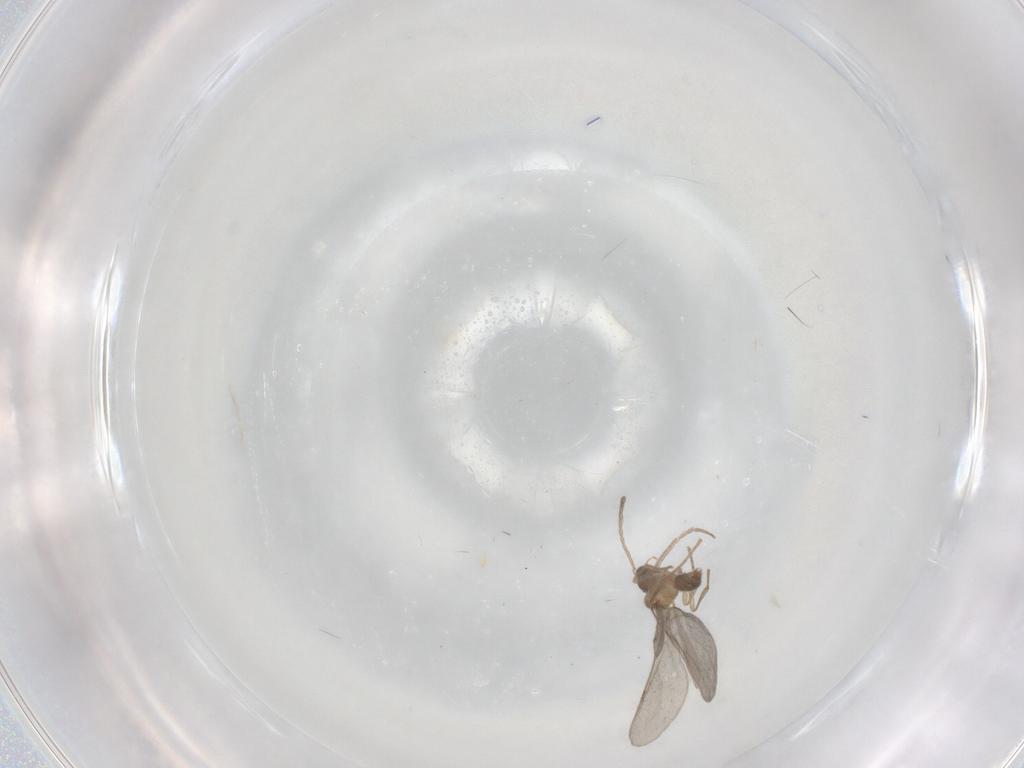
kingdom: Animalia
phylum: Arthropoda
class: Insecta
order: Hymenoptera
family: Formicidae
